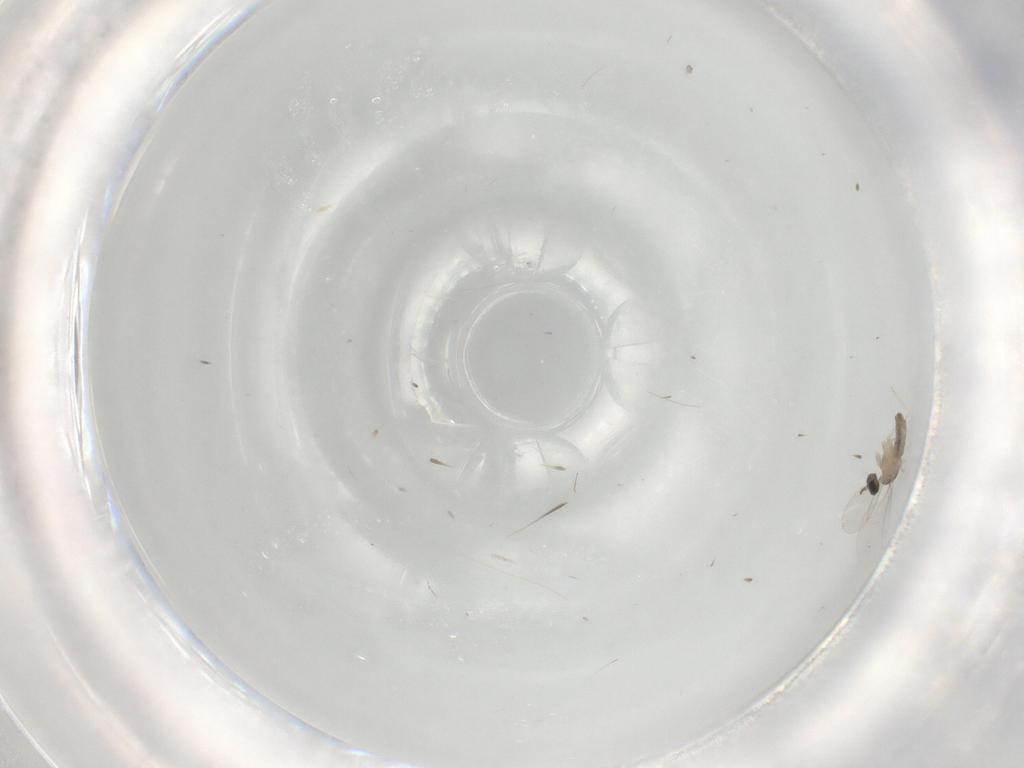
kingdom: Animalia
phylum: Arthropoda
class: Insecta
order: Diptera
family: Cecidomyiidae
